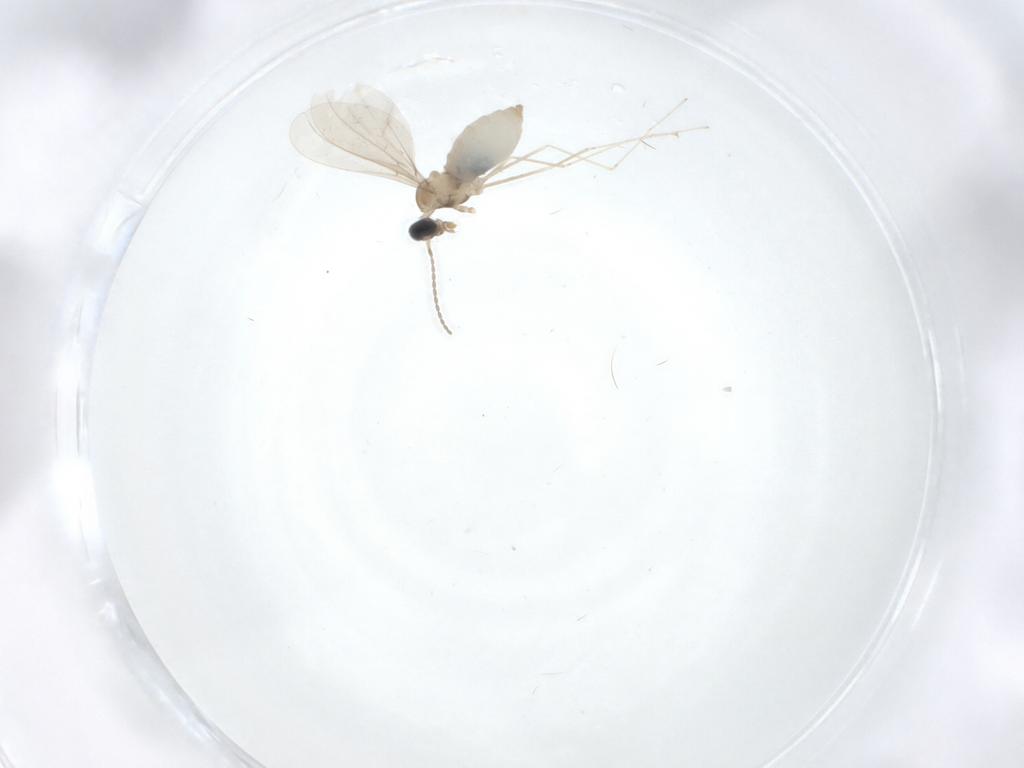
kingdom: Animalia
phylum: Arthropoda
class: Insecta
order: Diptera
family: Cecidomyiidae
